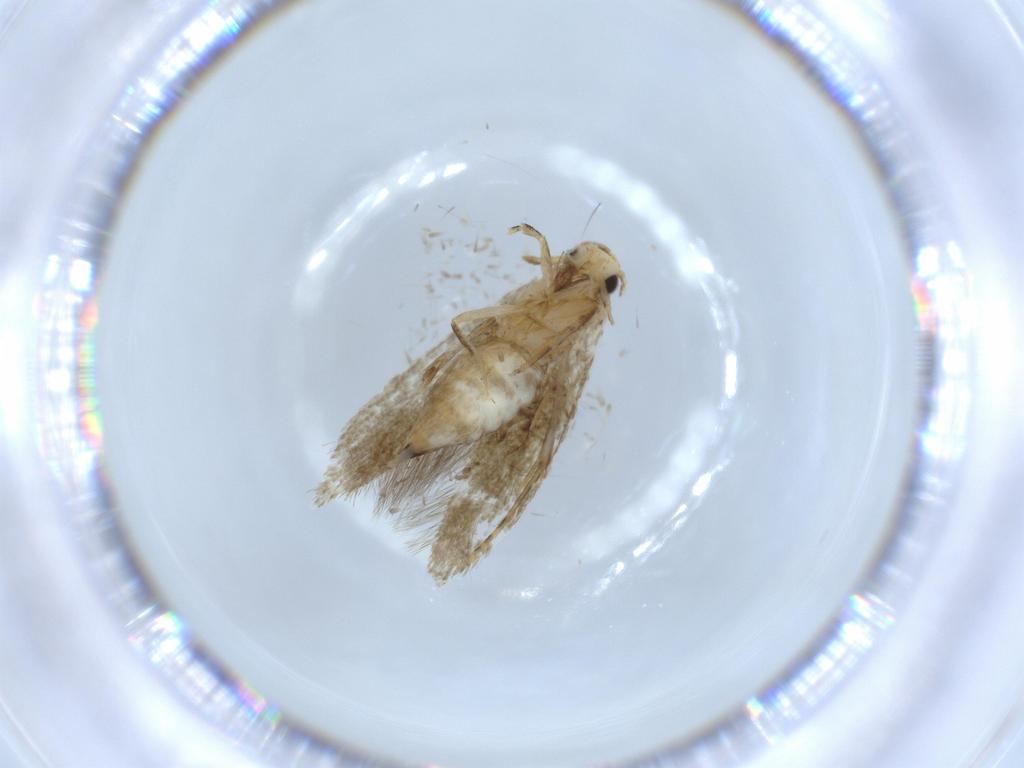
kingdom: Animalia
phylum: Arthropoda
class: Insecta
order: Lepidoptera
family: Tineidae
